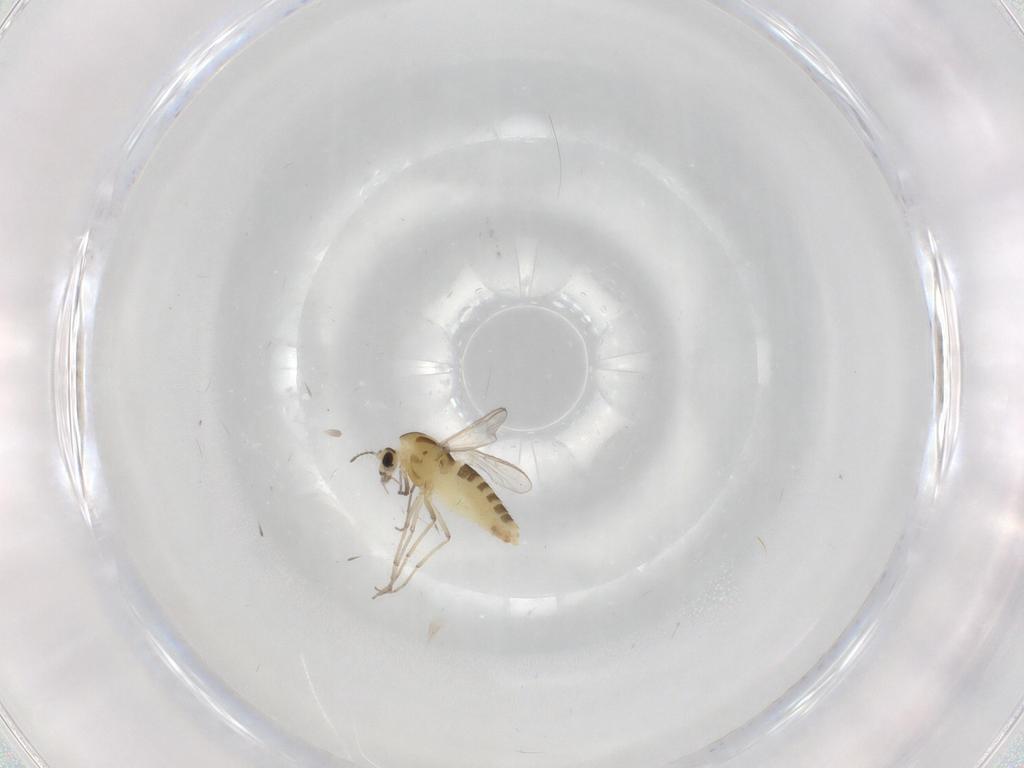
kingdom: Animalia
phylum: Arthropoda
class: Insecta
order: Diptera
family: Chironomidae
